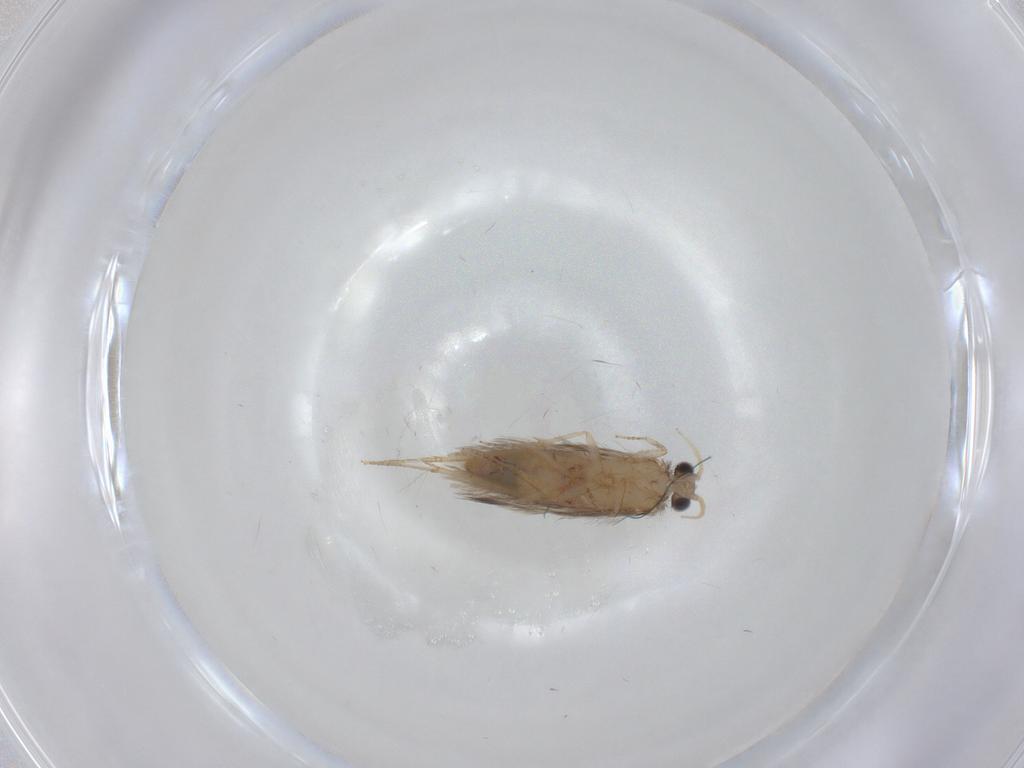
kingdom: Animalia
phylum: Arthropoda
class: Insecta
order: Trichoptera
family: Hydroptilidae
